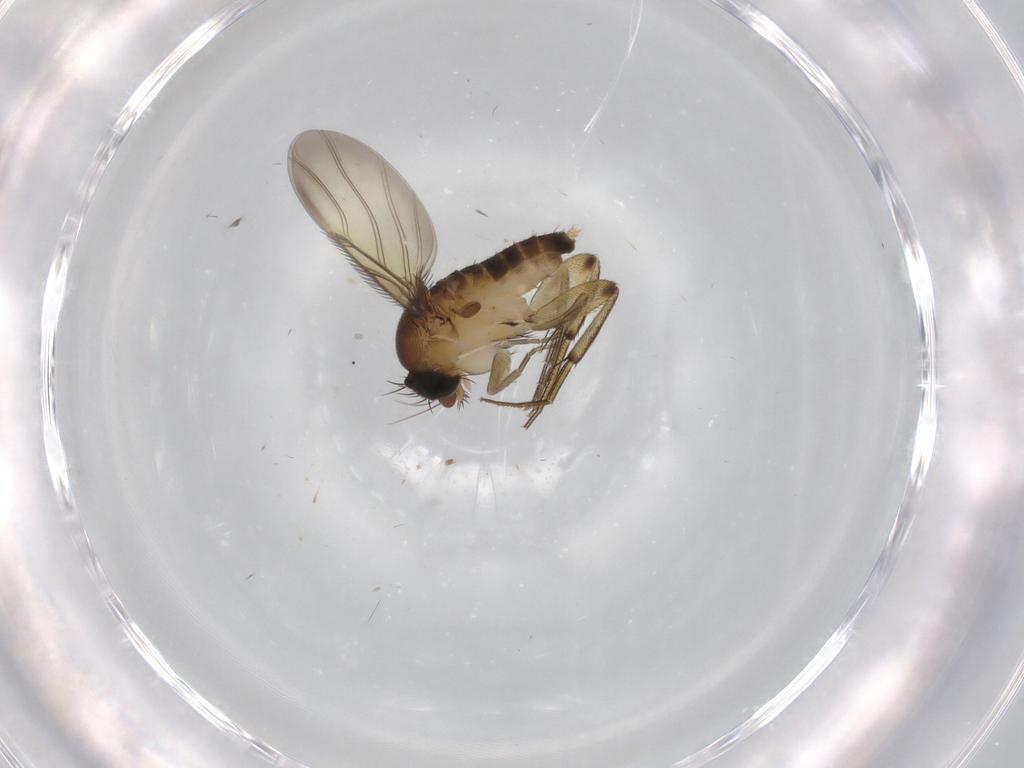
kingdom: Animalia
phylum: Arthropoda
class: Insecta
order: Diptera
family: Phoridae
